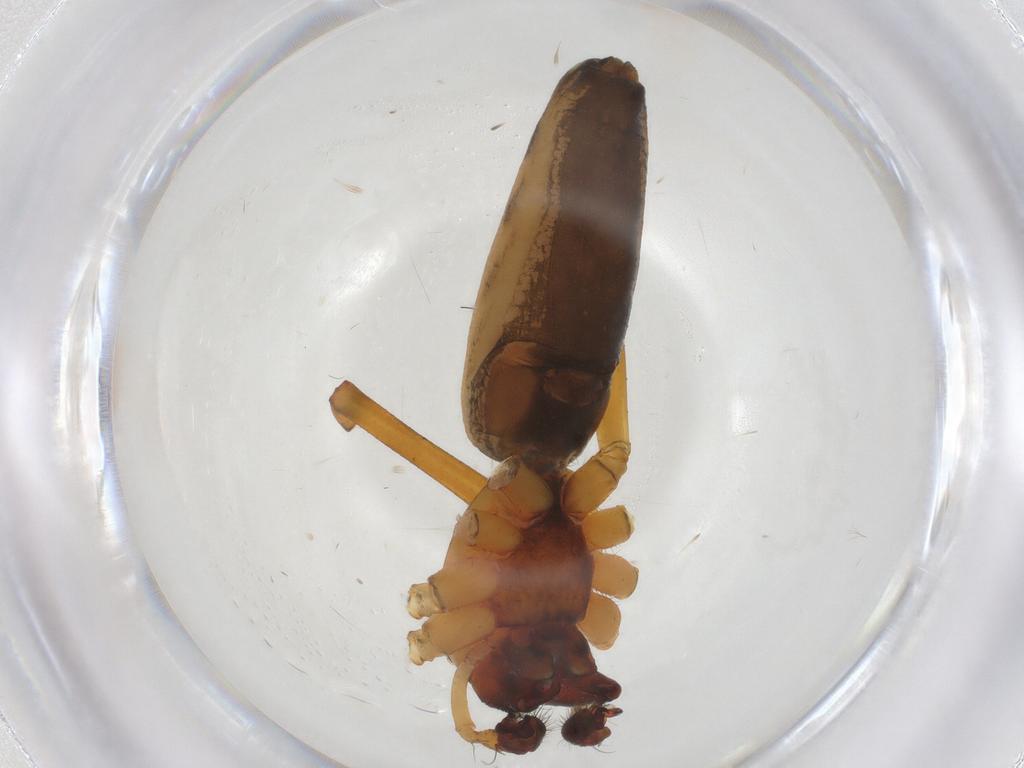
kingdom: Animalia
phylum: Arthropoda
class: Arachnida
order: Araneae
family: Linyphiidae
